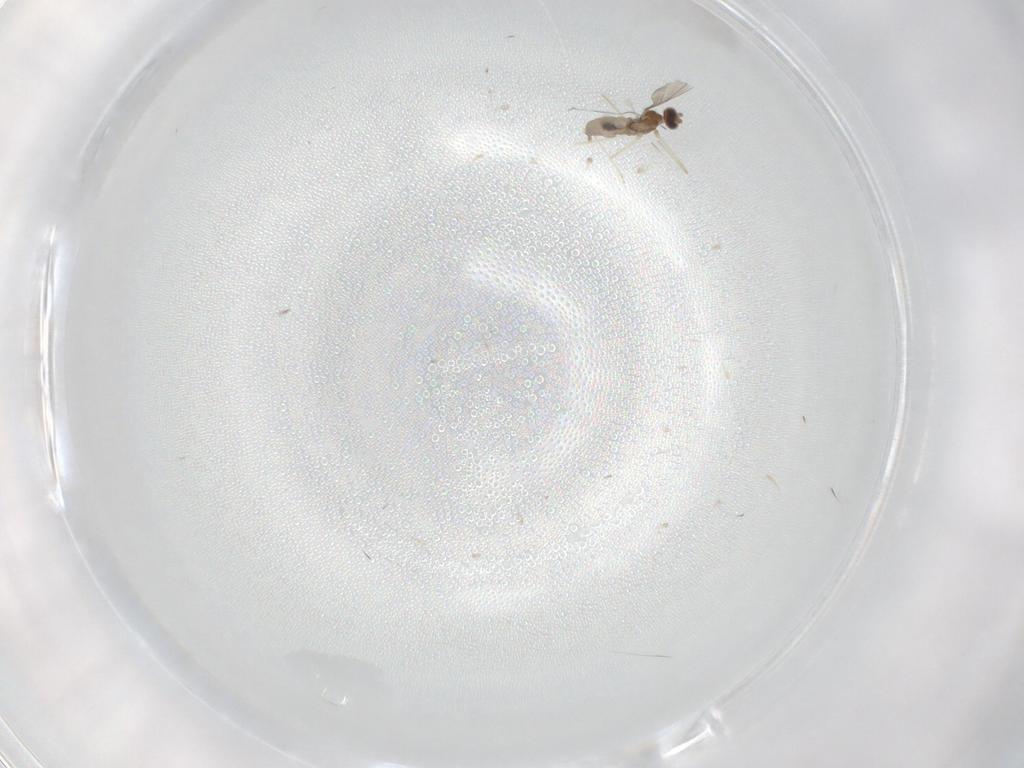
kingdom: Animalia
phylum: Arthropoda
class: Insecta
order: Diptera
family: Cecidomyiidae
